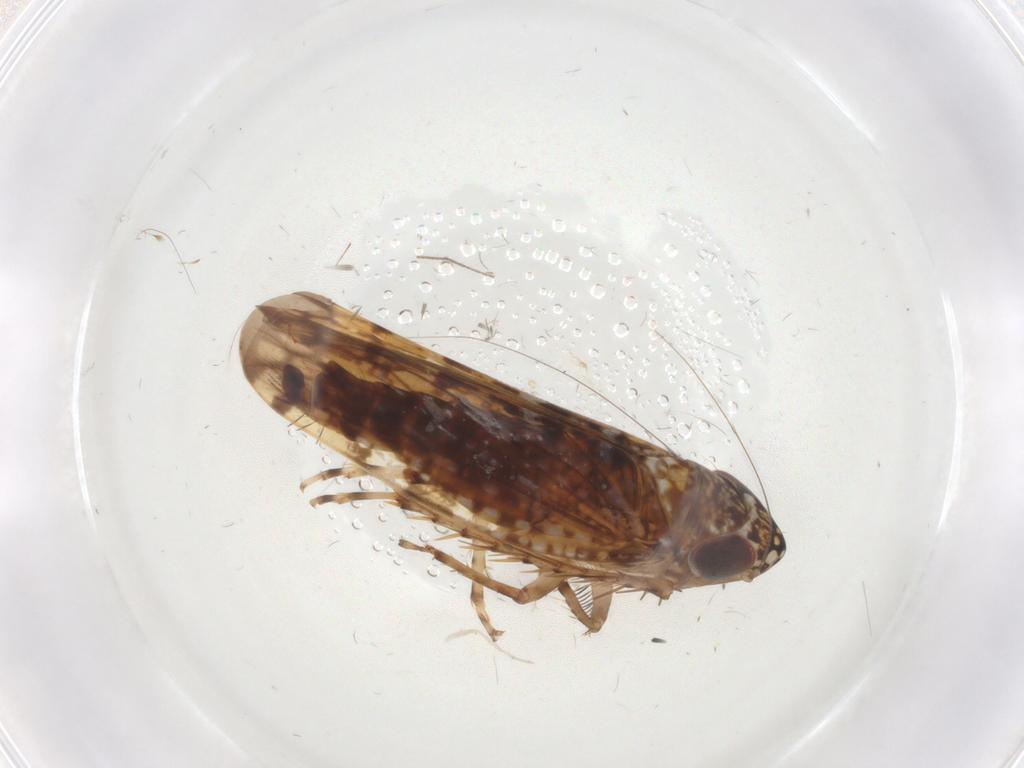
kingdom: Animalia
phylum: Arthropoda
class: Insecta
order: Hemiptera
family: Cicadellidae
